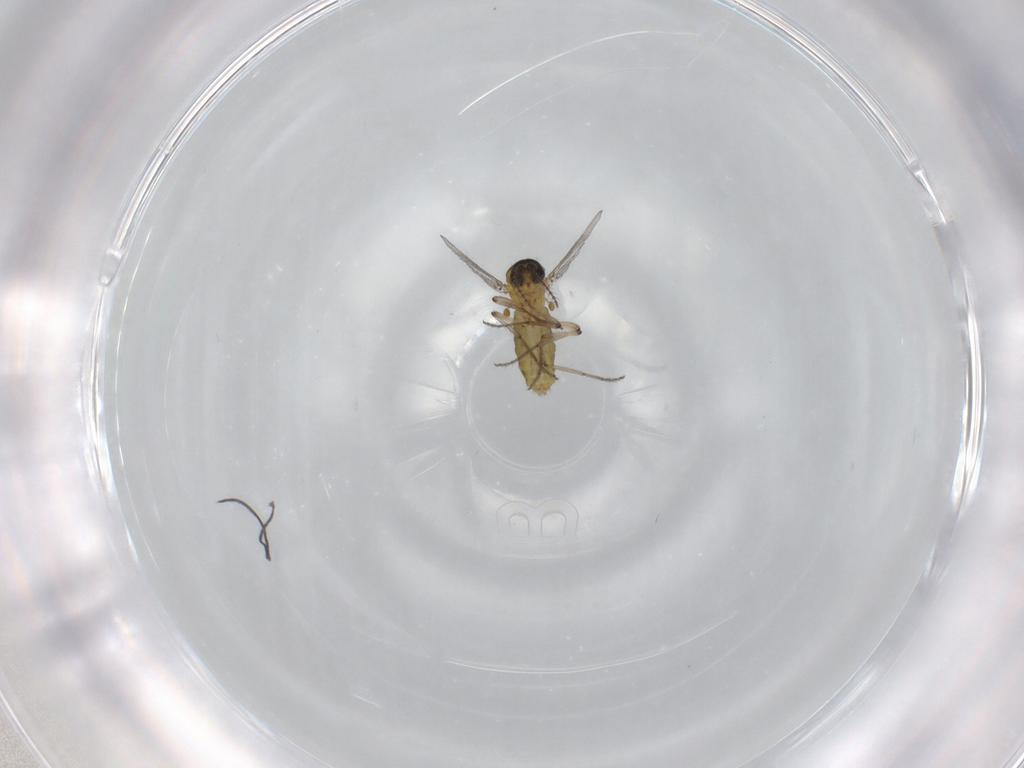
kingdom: Animalia
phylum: Arthropoda
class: Insecta
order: Diptera
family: Ceratopogonidae
